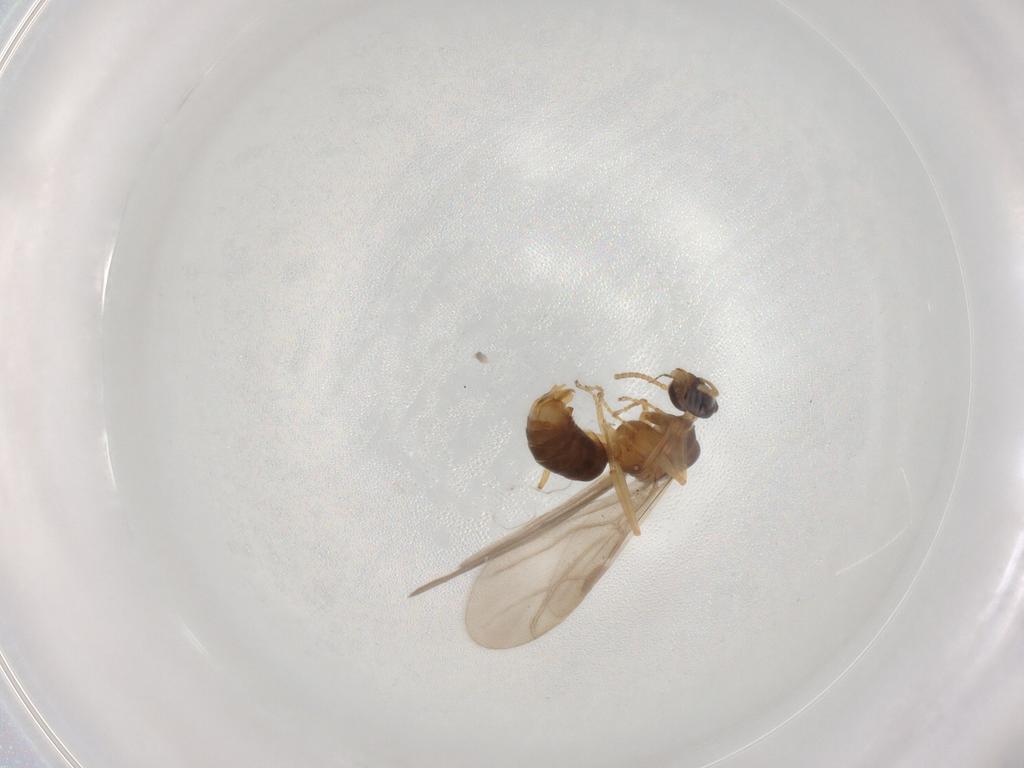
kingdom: Animalia
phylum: Arthropoda
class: Insecta
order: Hymenoptera
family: Formicidae
